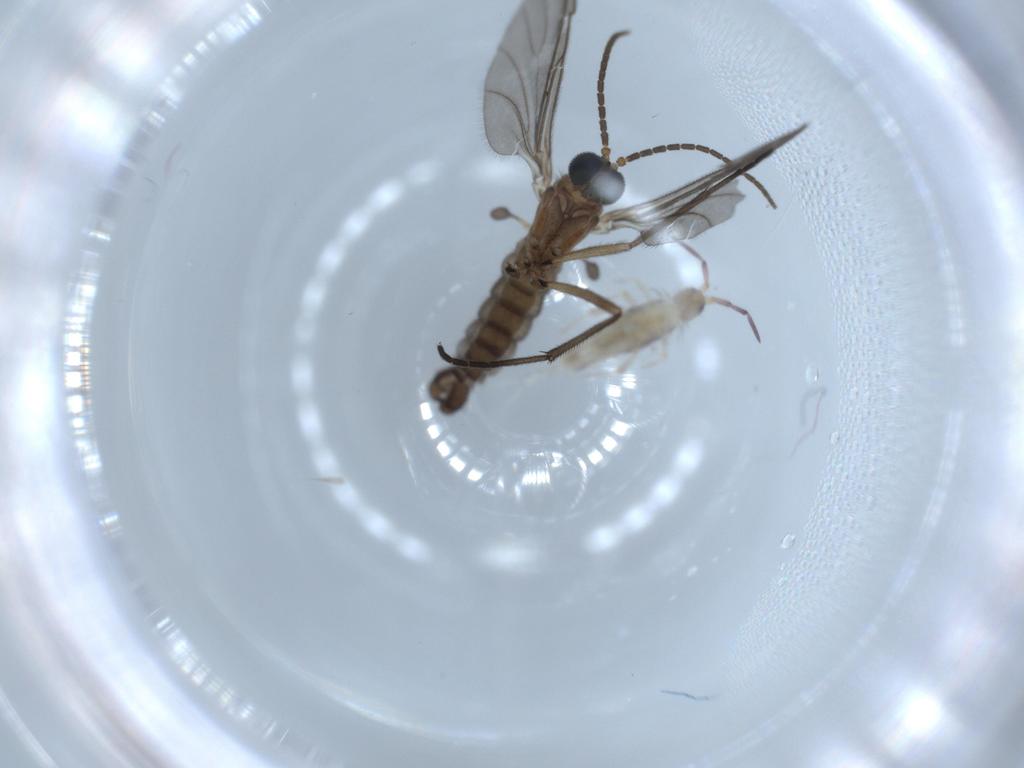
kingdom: Animalia
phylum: Arthropoda
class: Insecta
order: Diptera
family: Sciaridae
